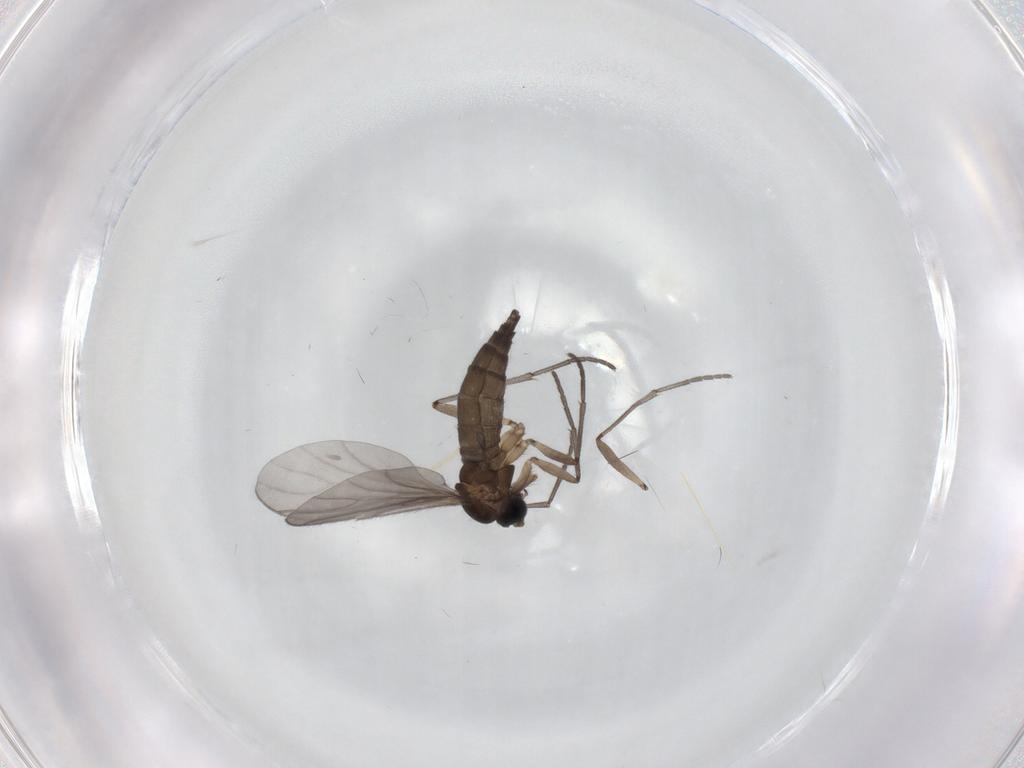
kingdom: Animalia
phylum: Arthropoda
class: Insecta
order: Diptera
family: Sciaridae
